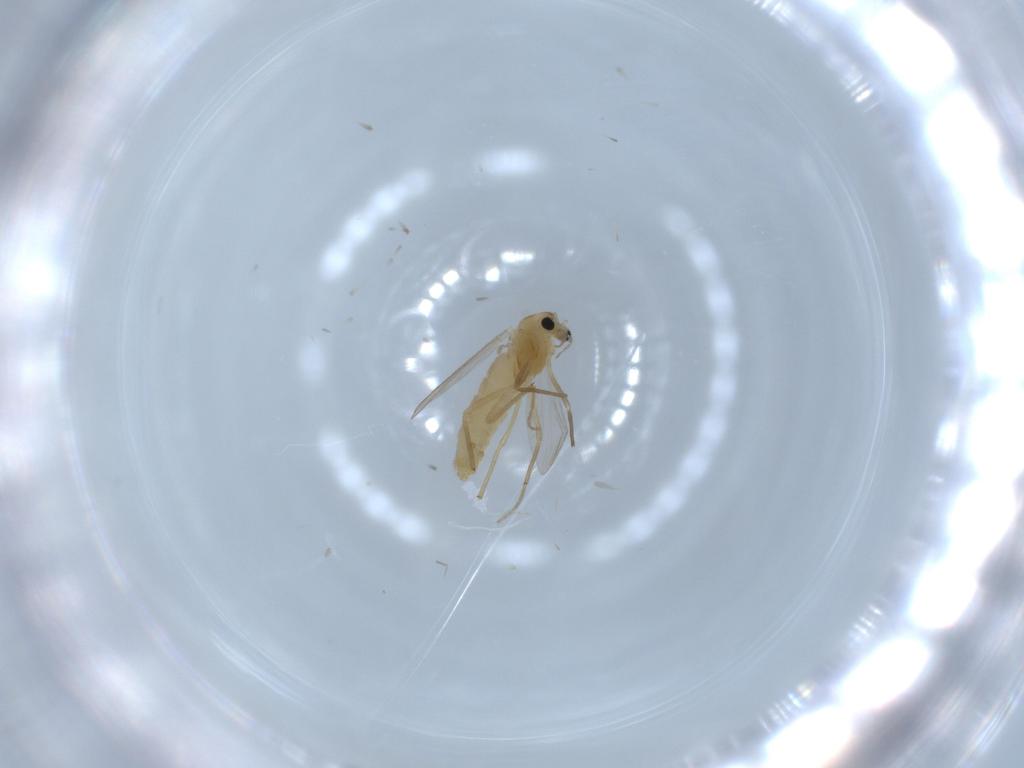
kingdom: Animalia
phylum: Arthropoda
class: Insecta
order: Diptera
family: Chironomidae
